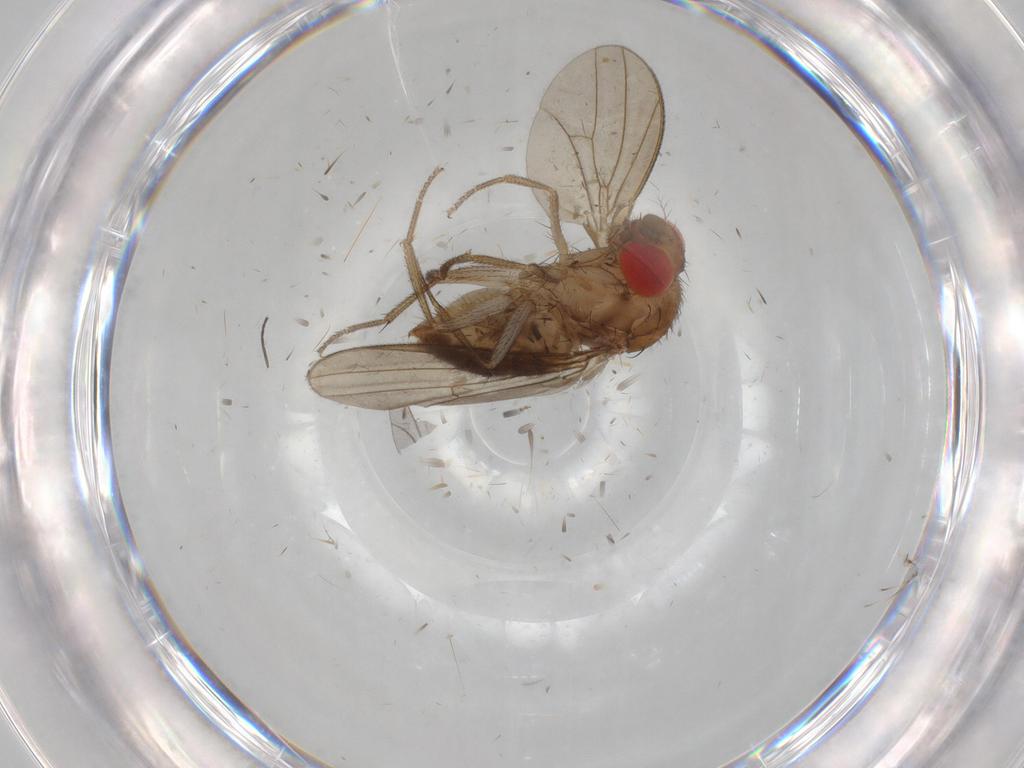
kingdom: Animalia
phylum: Arthropoda
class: Insecta
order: Diptera
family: Drosophilidae
